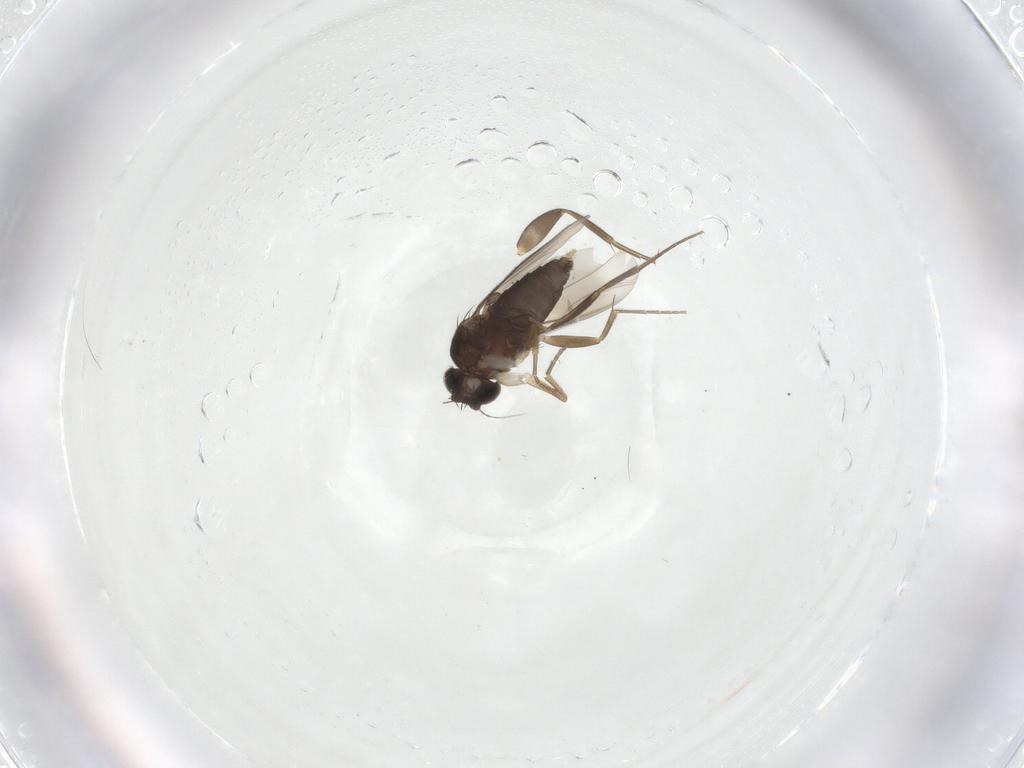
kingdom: Animalia
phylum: Arthropoda
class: Insecta
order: Diptera
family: Phoridae
